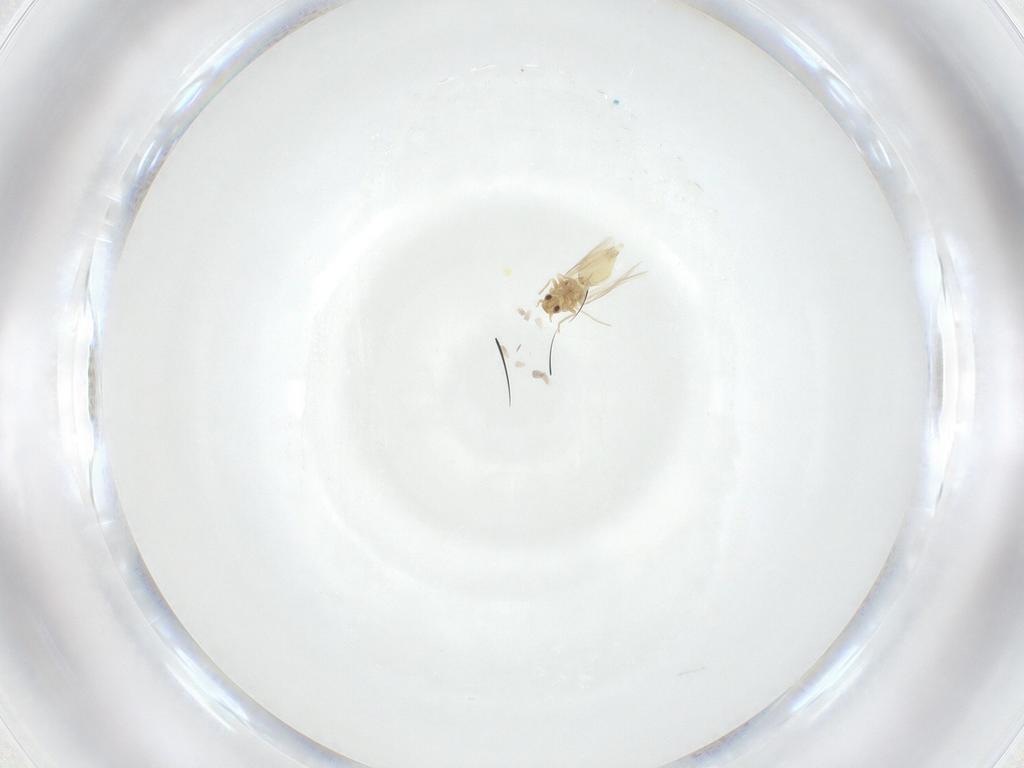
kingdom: Animalia
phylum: Arthropoda
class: Insecta
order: Hemiptera
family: Aleyrodidae
